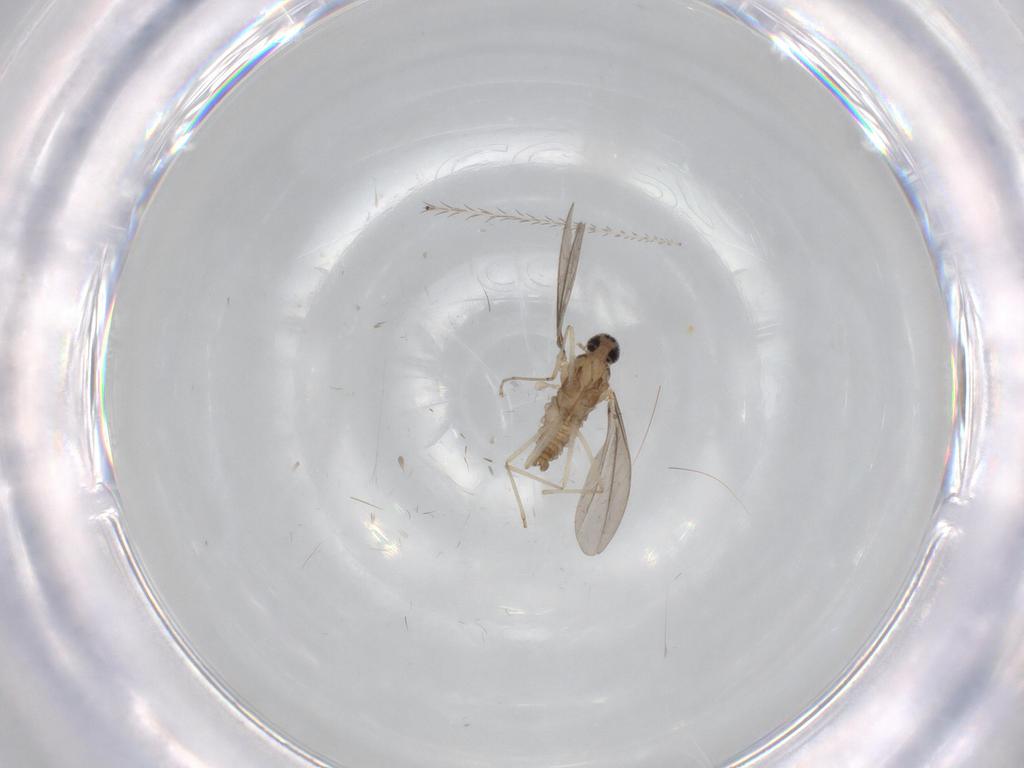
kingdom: Animalia
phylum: Arthropoda
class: Insecta
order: Diptera
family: Cecidomyiidae
